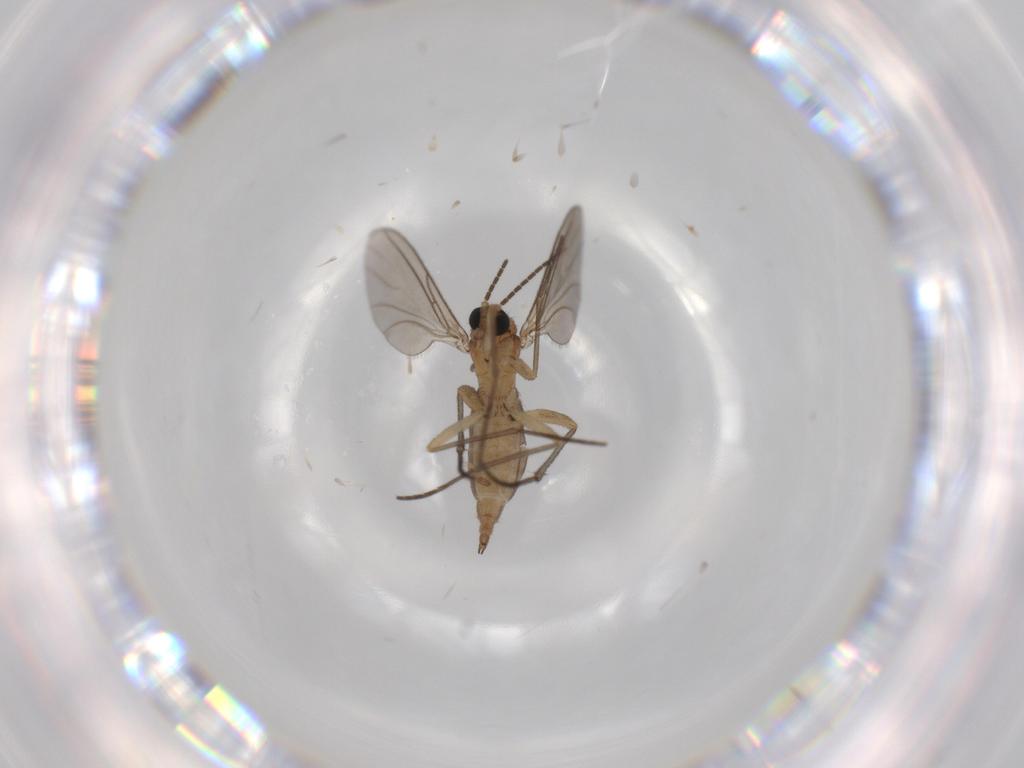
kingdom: Animalia
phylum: Arthropoda
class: Insecta
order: Diptera
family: Sciaridae
